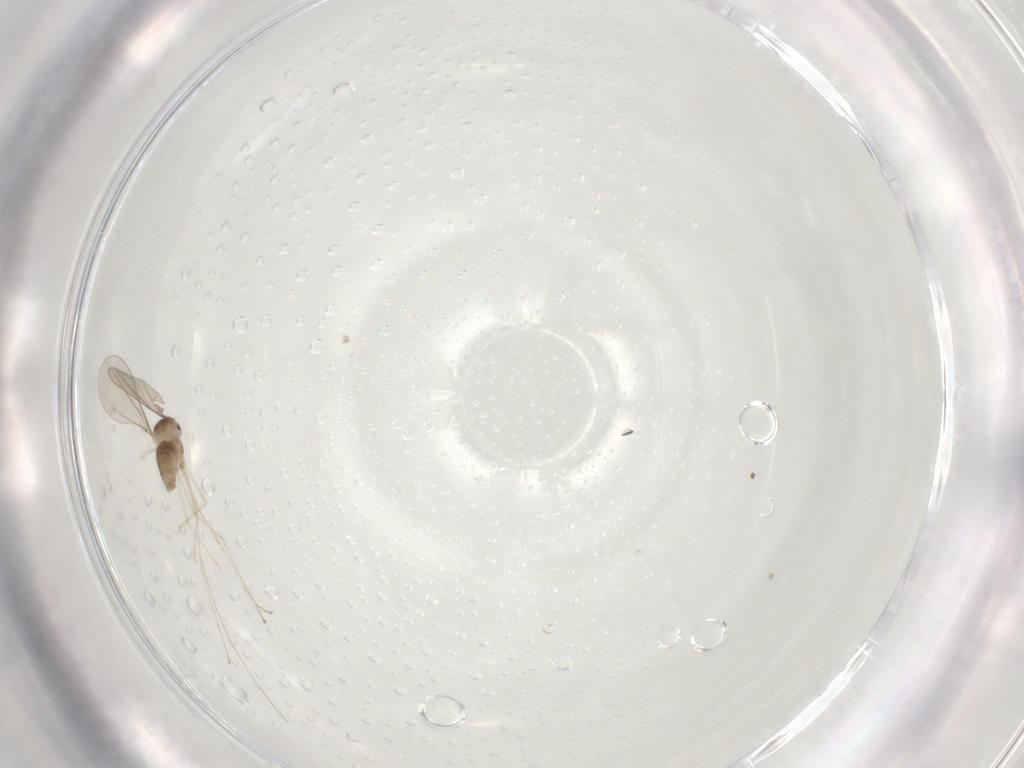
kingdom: Animalia
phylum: Arthropoda
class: Insecta
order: Diptera
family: Cecidomyiidae
